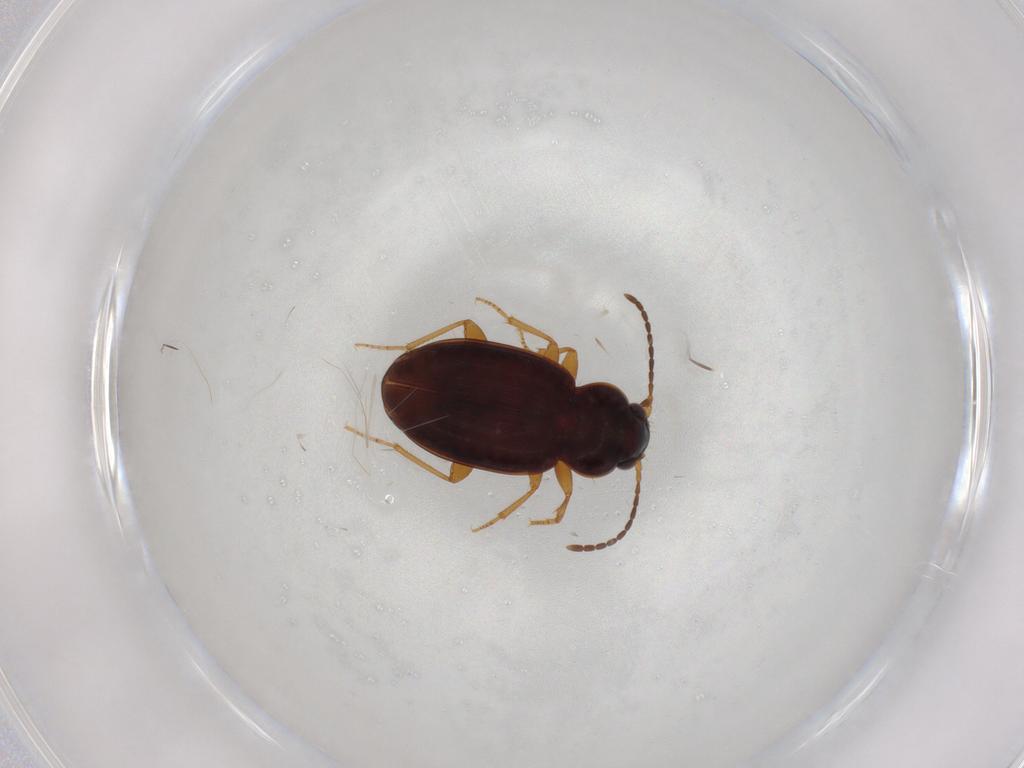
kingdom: Animalia
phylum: Arthropoda
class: Insecta
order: Coleoptera
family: Carabidae
